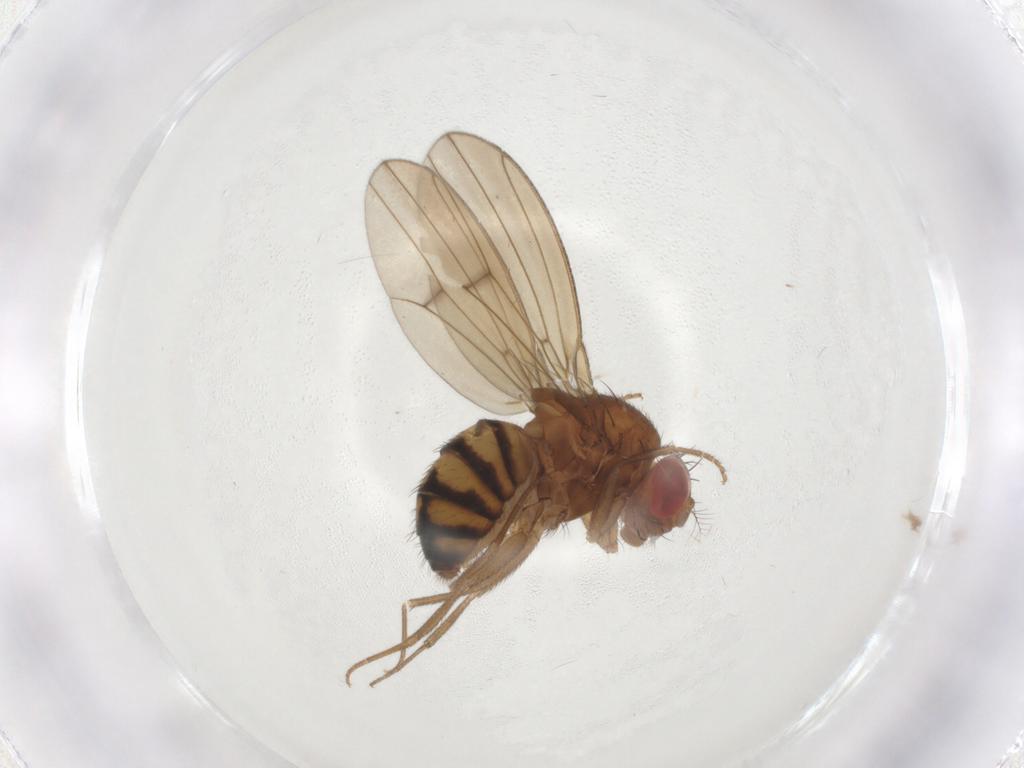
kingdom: Animalia
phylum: Arthropoda
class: Insecta
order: Diptera
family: Drosophilidae
